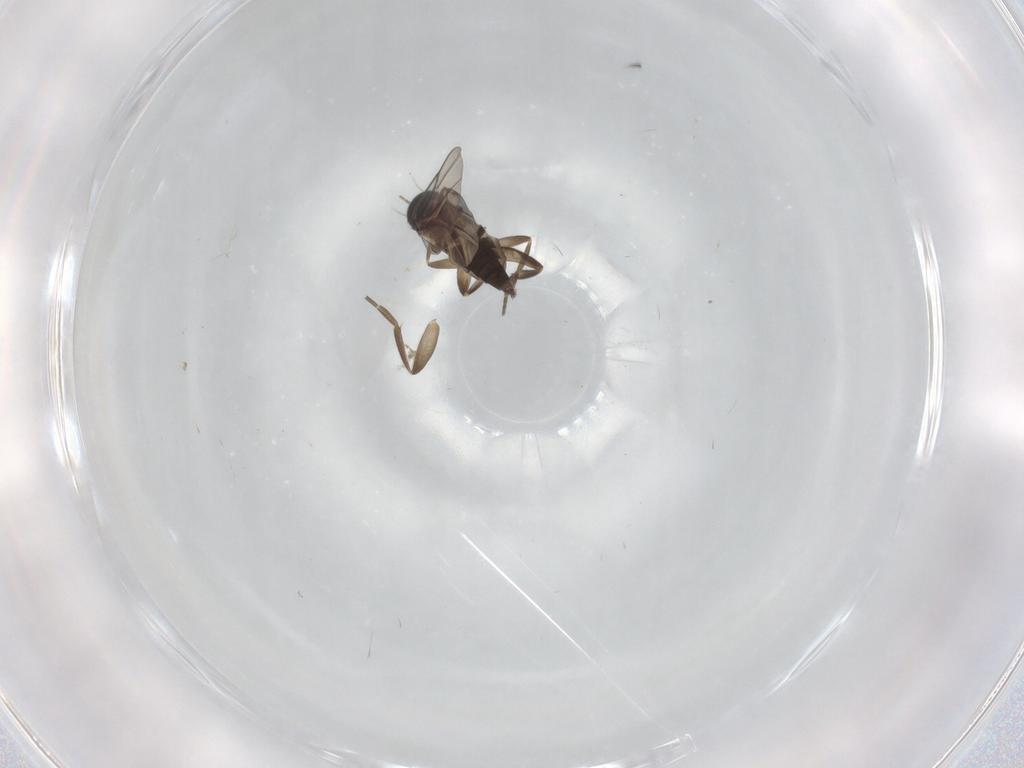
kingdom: Animalia
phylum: Arthropoda
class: Insecta
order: Diptera
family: Phoridae
